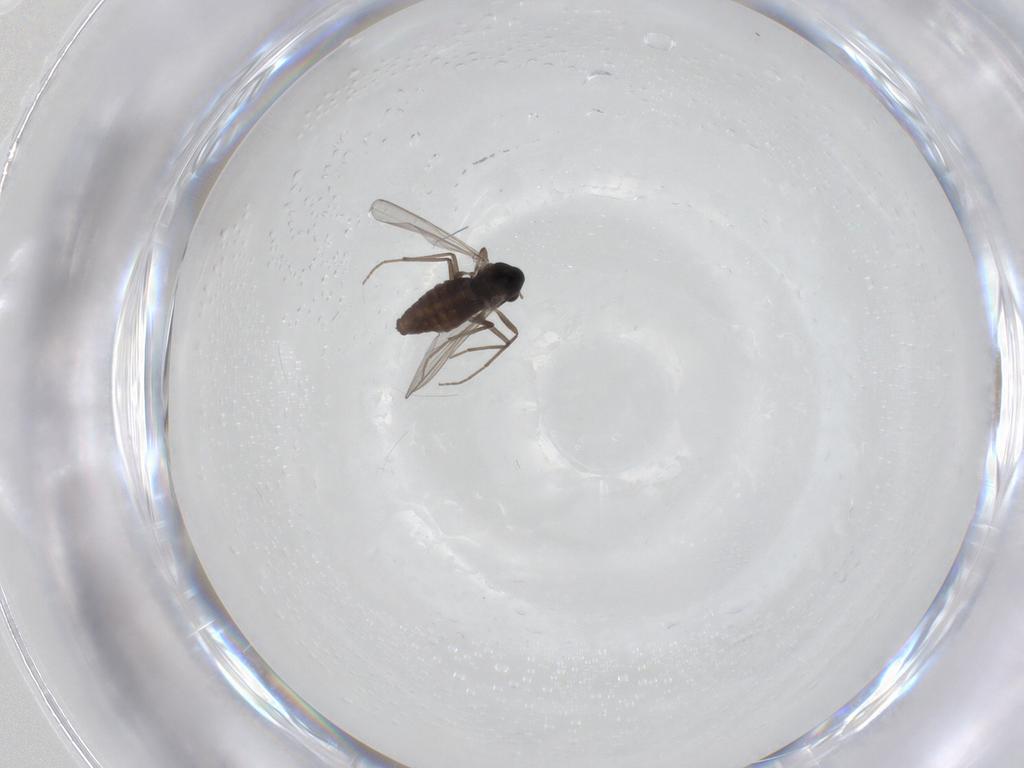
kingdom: Animalia
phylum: Arthropoda
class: Insecta
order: Diptera
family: Chironomidae
